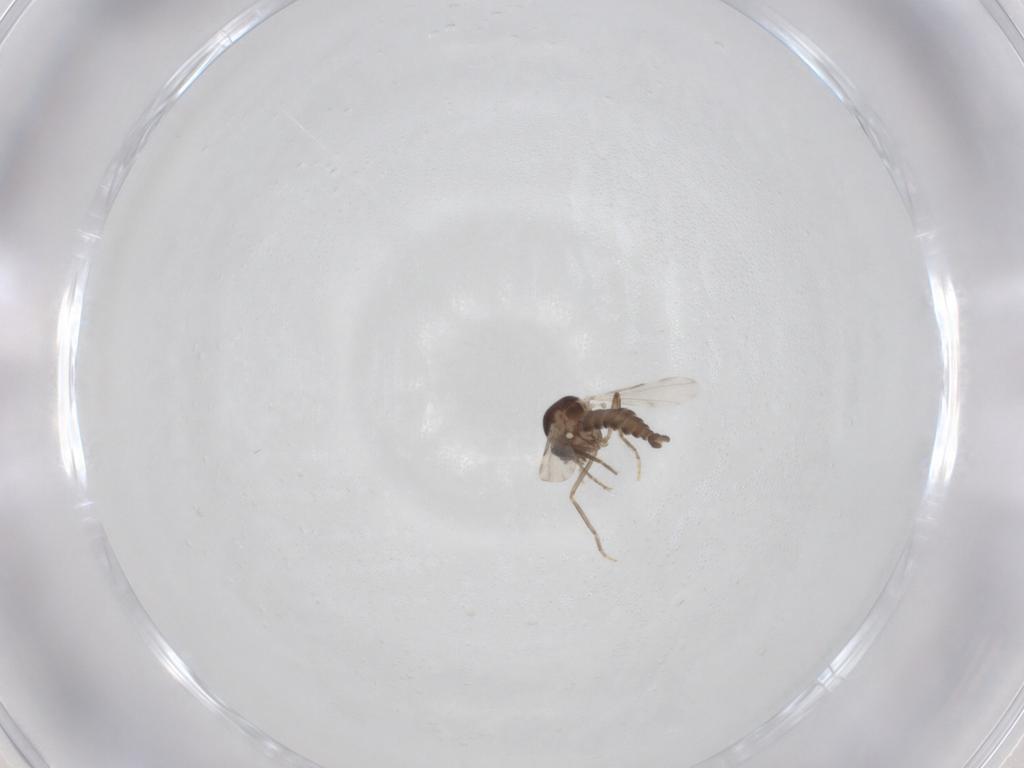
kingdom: Animalia
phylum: Arthropoda
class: Insecta
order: Diptera
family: Ceratopogonidae
